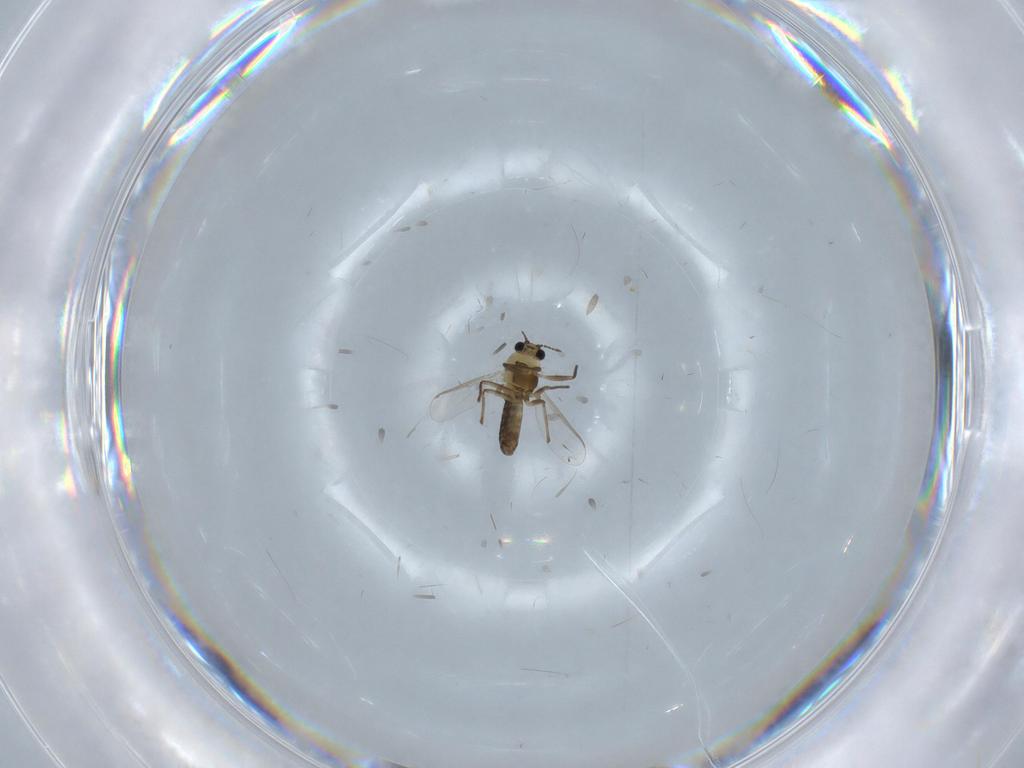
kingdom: Animalia
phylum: Arthropoda
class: Insecta
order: Diptera
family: Chironomidae
